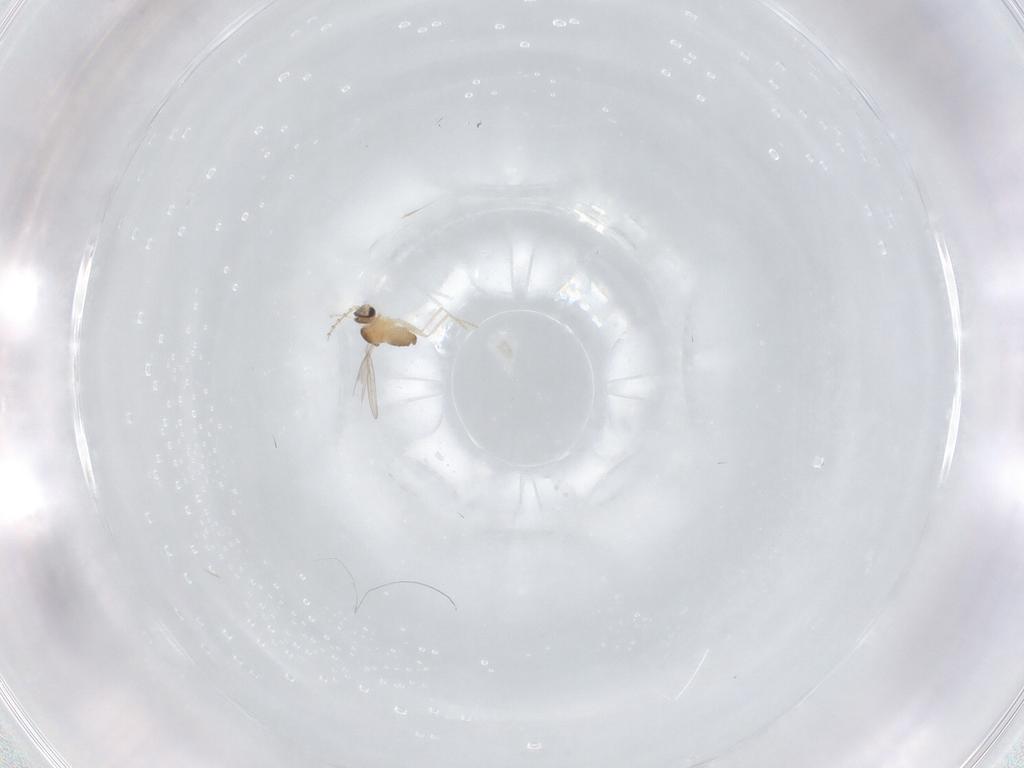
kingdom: Animalia
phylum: Arthropoda
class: Insecta
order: Diptera
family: Cecidomyiidae
